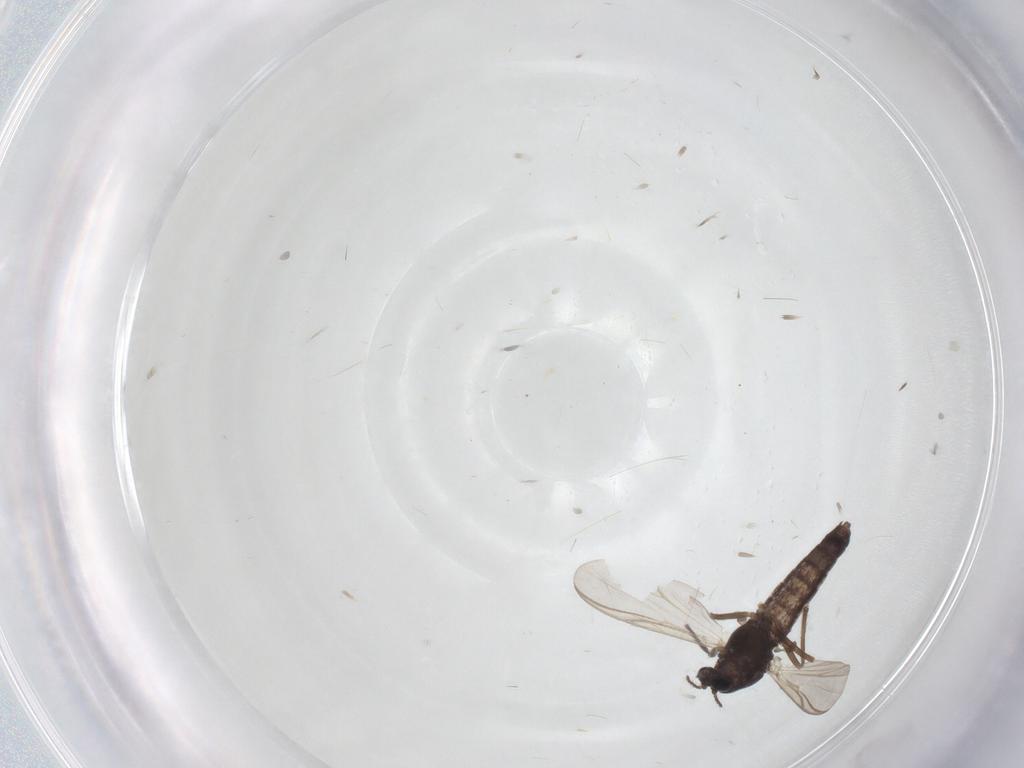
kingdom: Animalia
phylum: Arthropoda
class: Insecta
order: Diptera
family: Chironomidae
